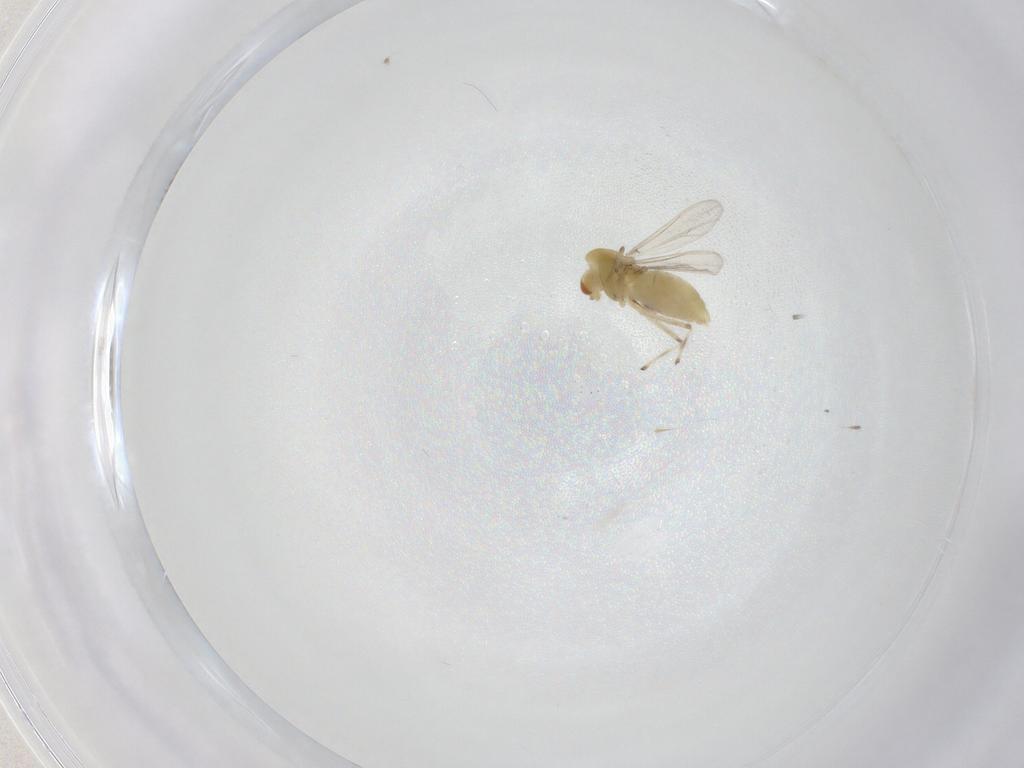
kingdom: Animalia
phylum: Arthropoda
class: Insecta
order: Diptera
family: Chironomidae
